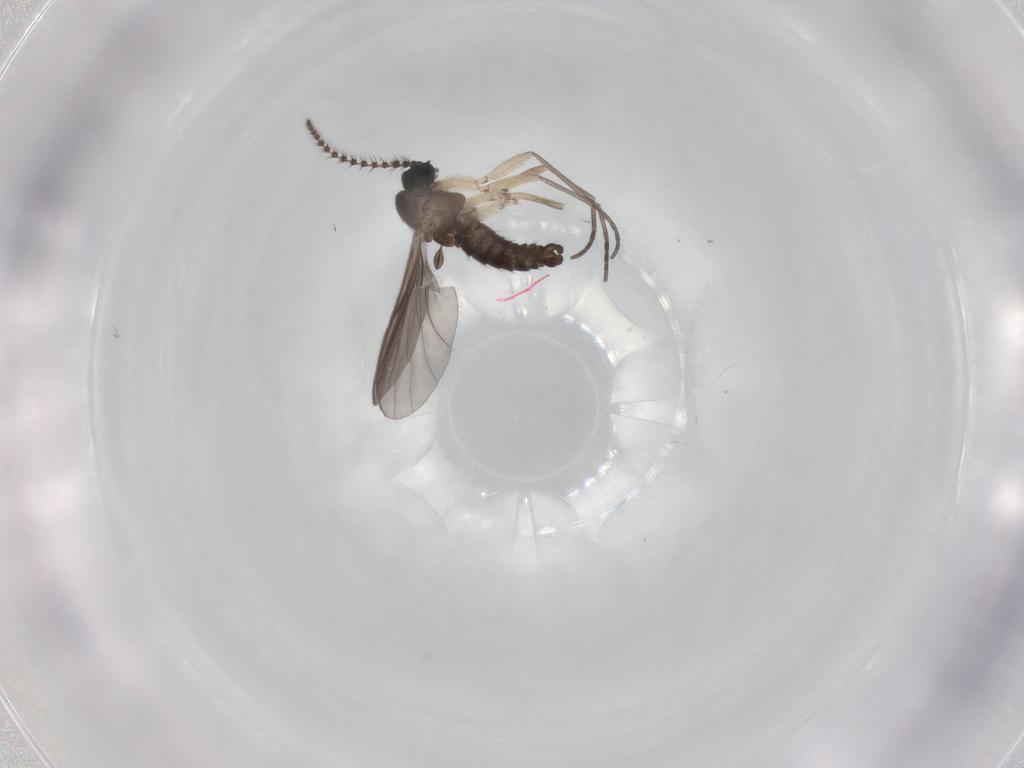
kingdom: Animalia
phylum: Arthropoda
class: Insecta
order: Diptera
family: Sciaridae
